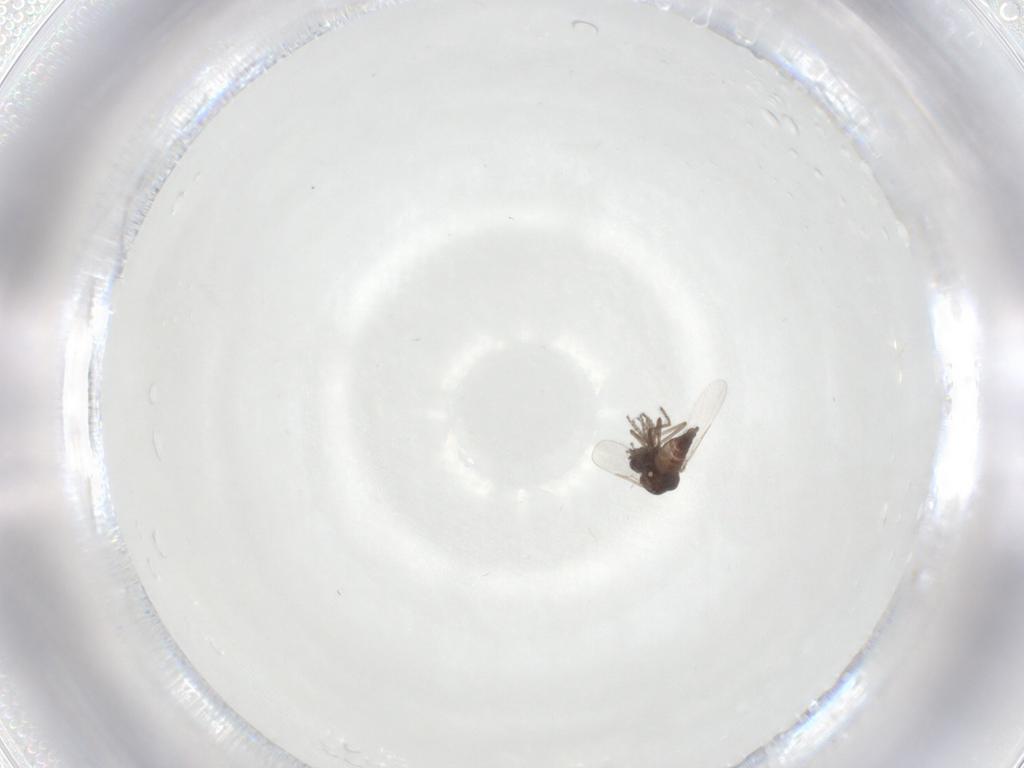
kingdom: Animalia
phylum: Arthropoda
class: Insecta
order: Diptera
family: Ceratopogonidae
